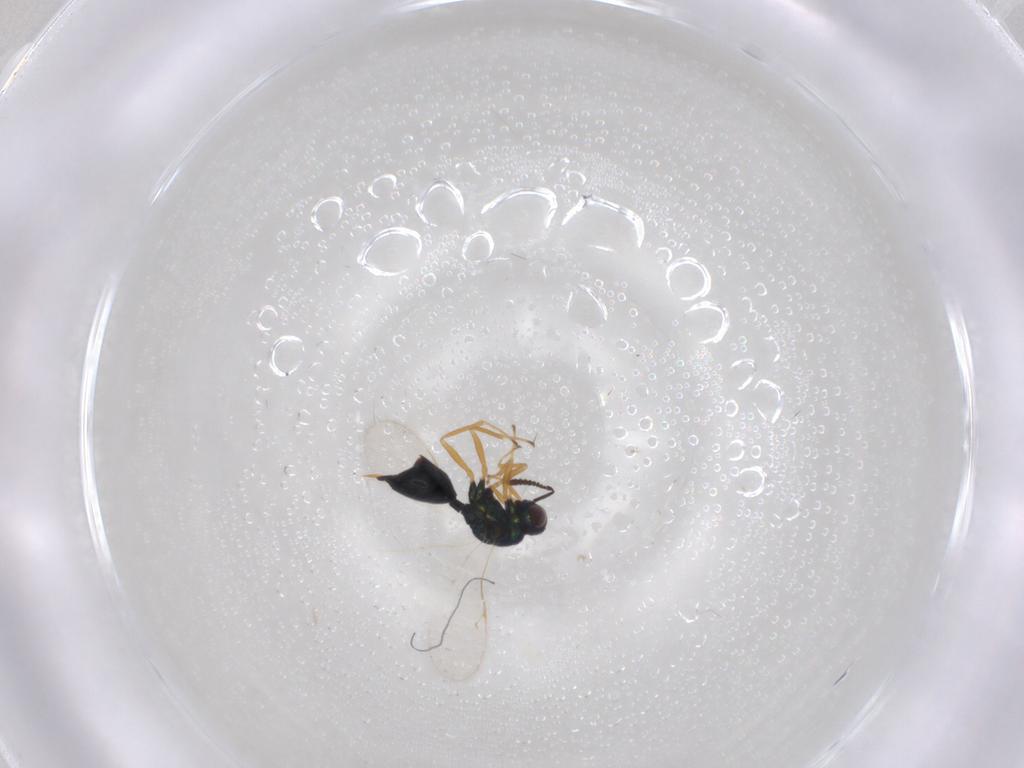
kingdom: Animalia
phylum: Arthropoda
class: Insecta
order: Hymenoptera
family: Figitidae
